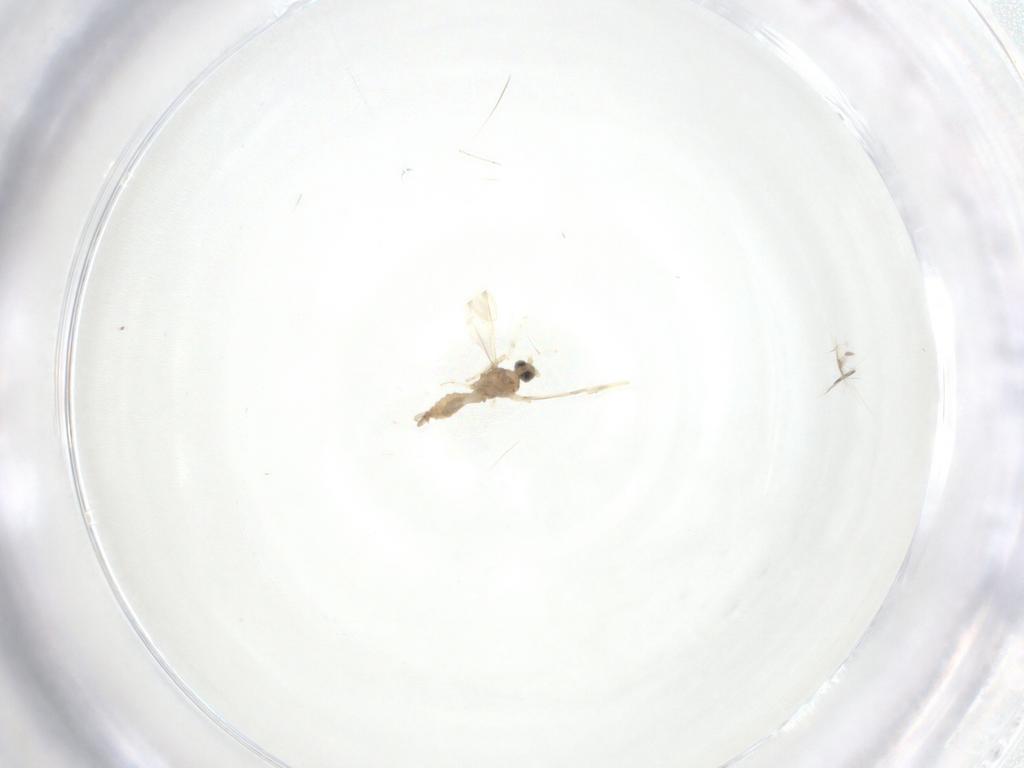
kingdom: Animalia
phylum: Arthropoda
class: Insecta
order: Diptera
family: Cecidomyiidae
